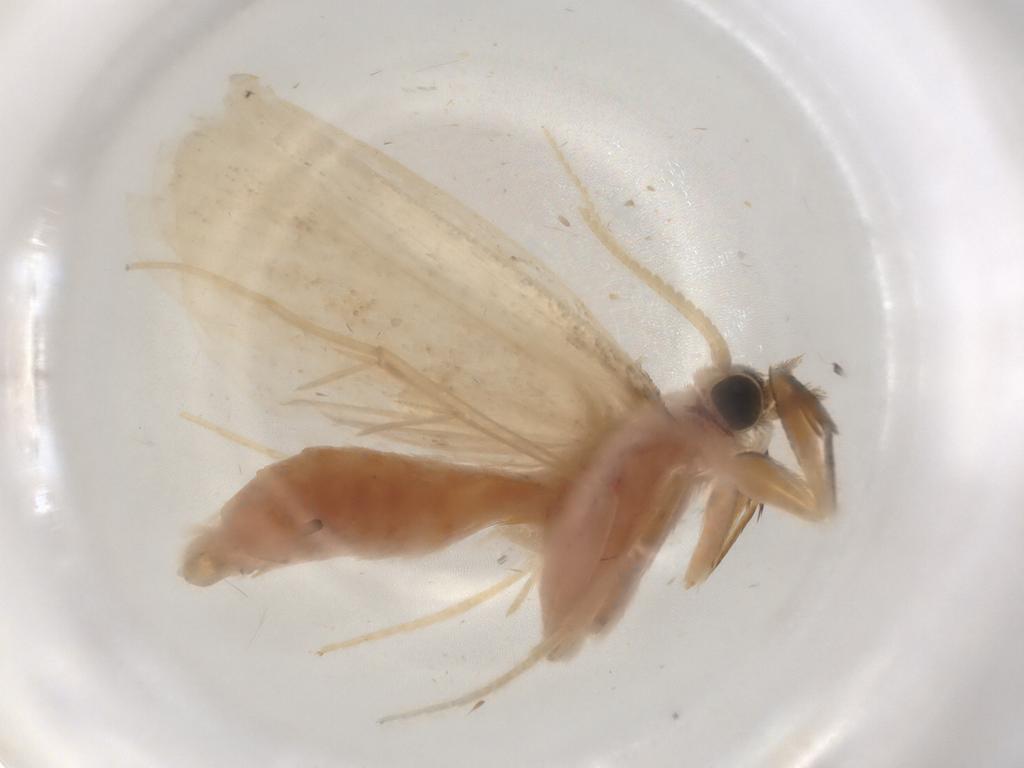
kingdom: Animalia
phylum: Arthropoda
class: Insecta
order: Lepidoptera
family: Crambidae
